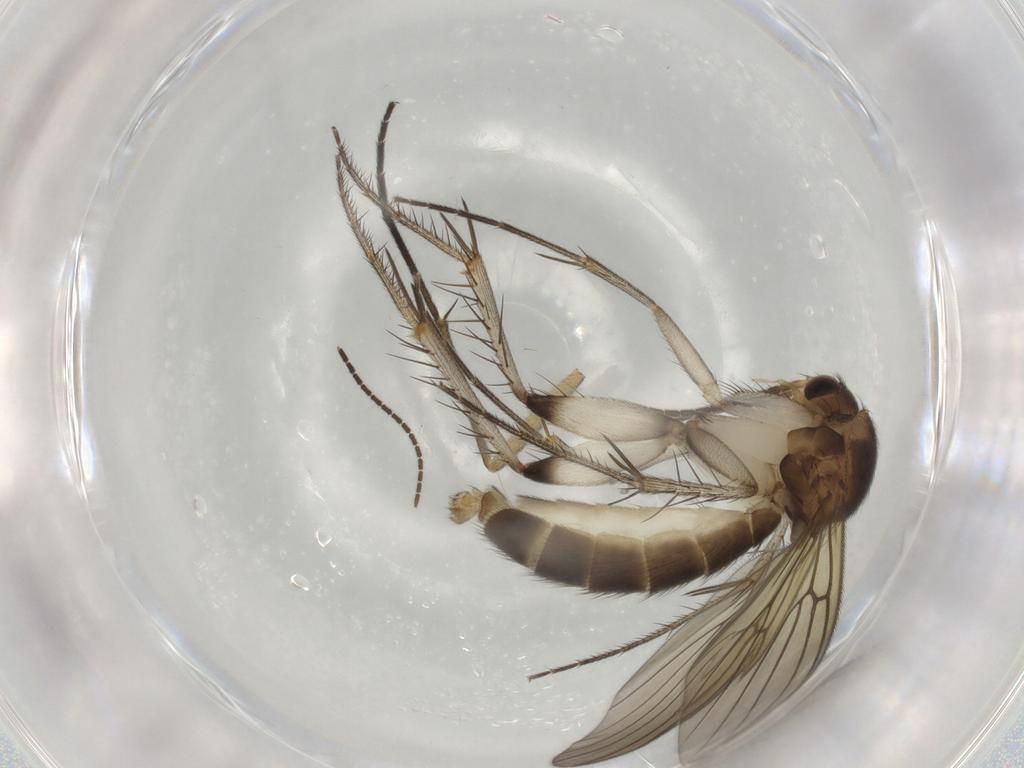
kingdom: Animalia
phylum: Arthropoda
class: Insecta
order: Diptera
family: Mycetophilidae
